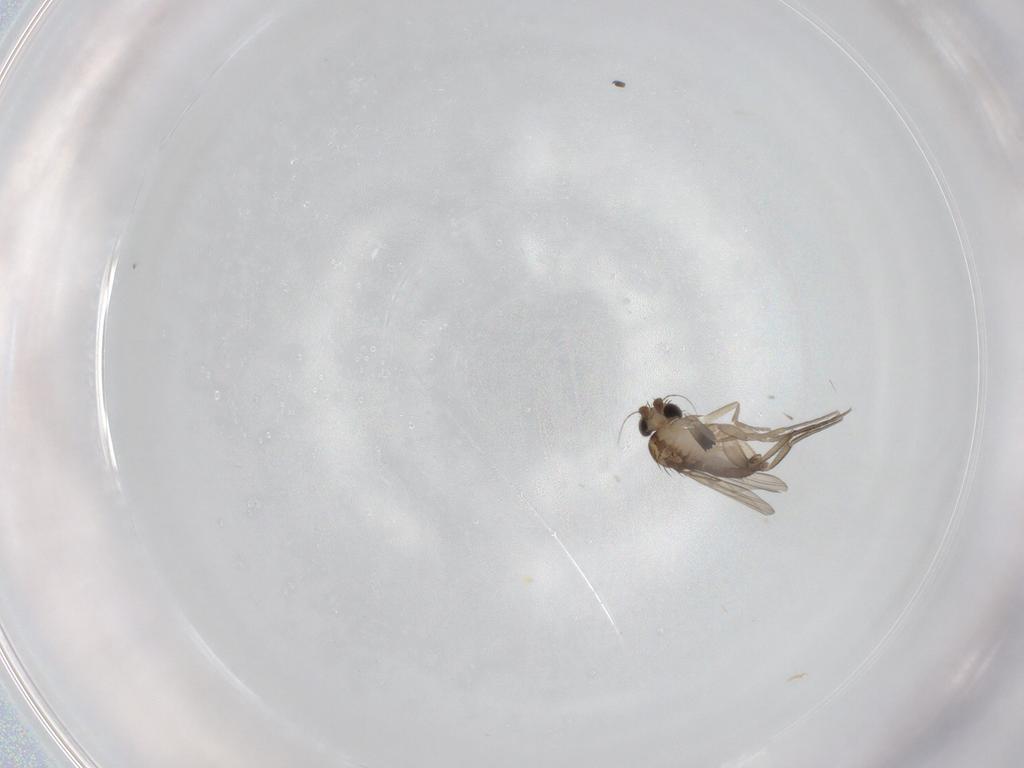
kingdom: Animalia
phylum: Arthropoda
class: Insecta
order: Diptera
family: Phoridae
